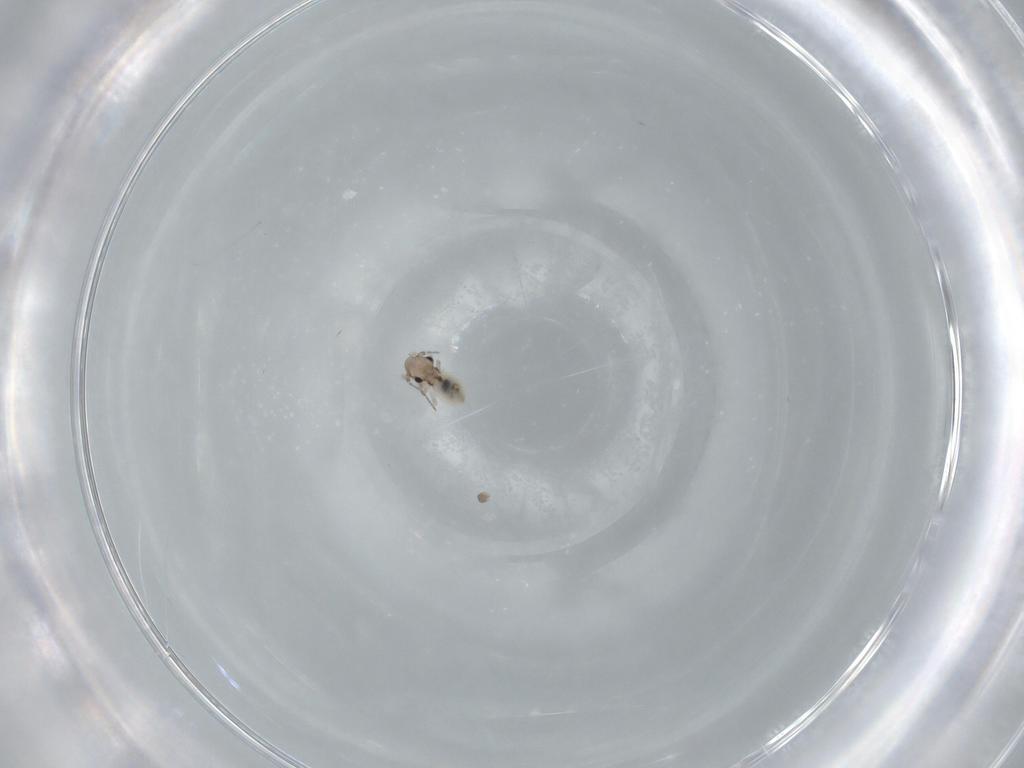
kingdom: Animalia
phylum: Arthropoda
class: Insecta
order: Psocodea
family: Lepidopsocidae
